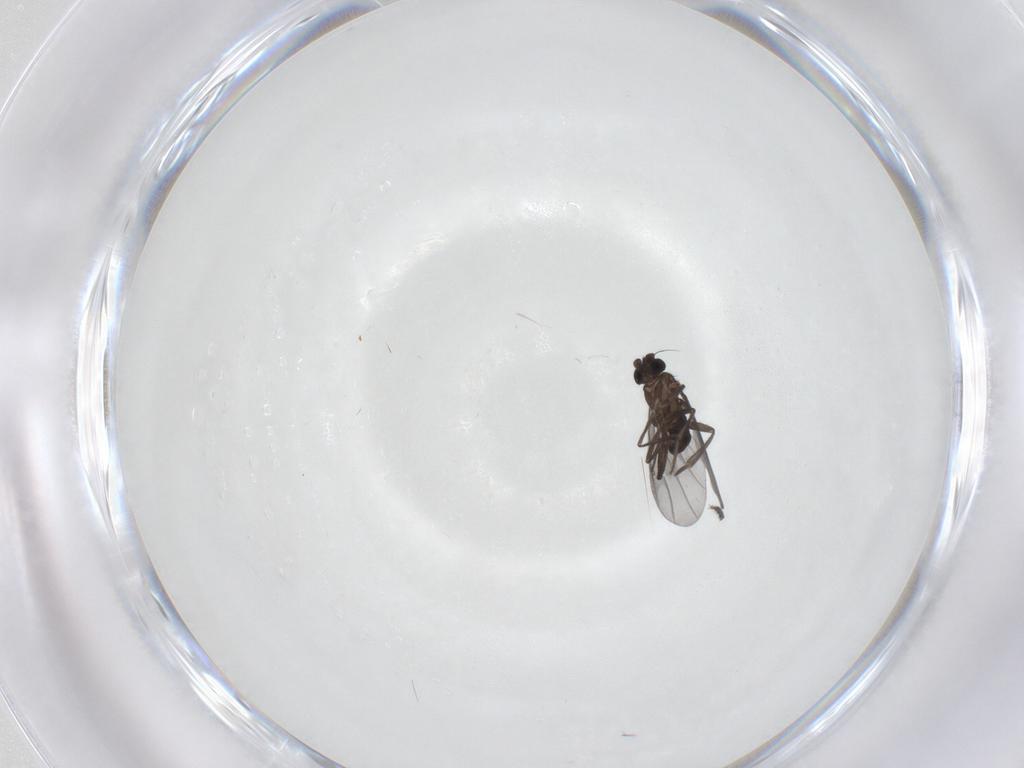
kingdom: Animalia
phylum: Arthropoda
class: Insecta
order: Diptera
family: Phoridae
